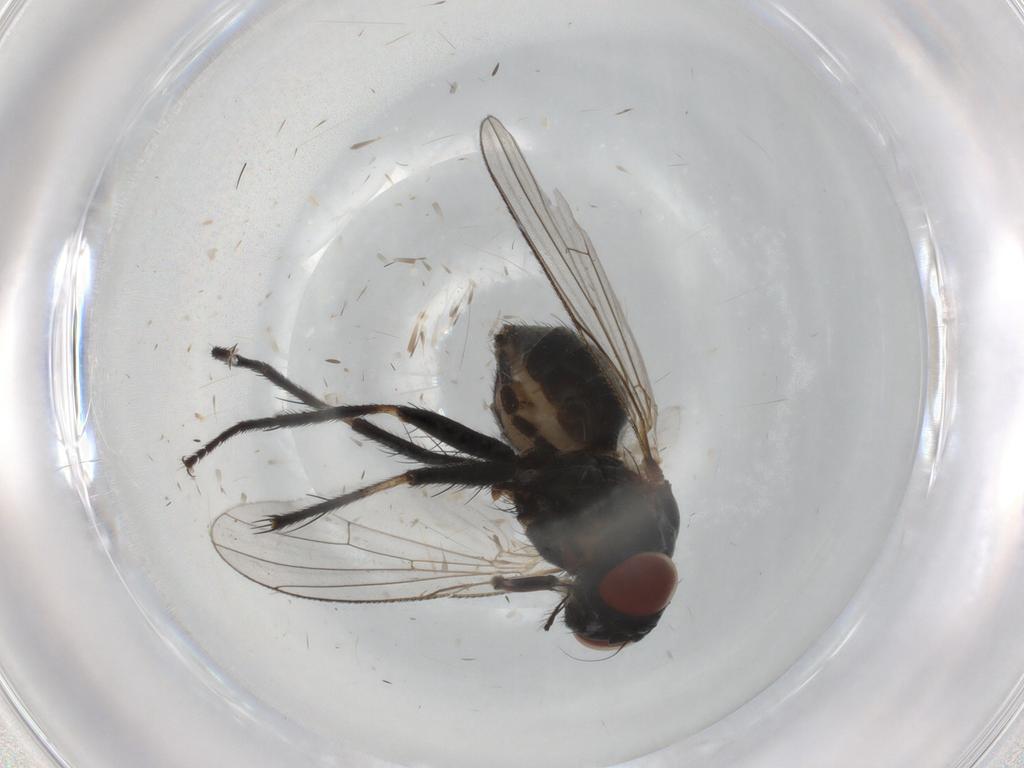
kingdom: Animalia
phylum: Arthropoda
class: Insecta
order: Diptera
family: Muscidae
